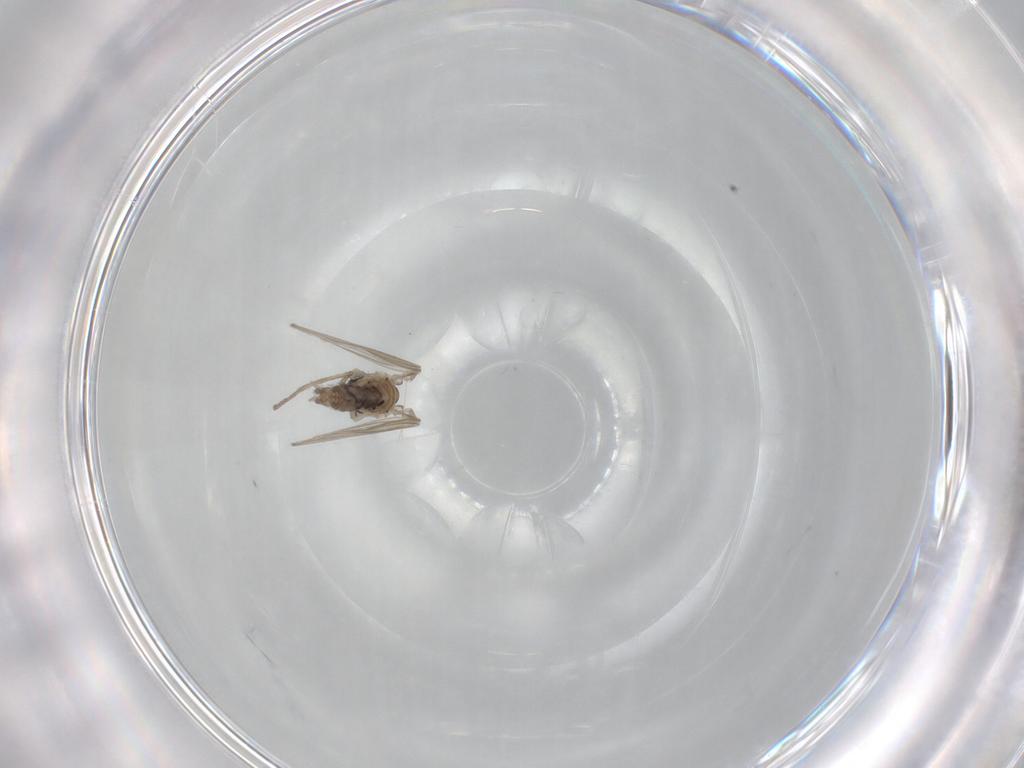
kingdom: Animalia
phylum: Arthropoda
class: Insecta
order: Diptera
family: Psychodidae
